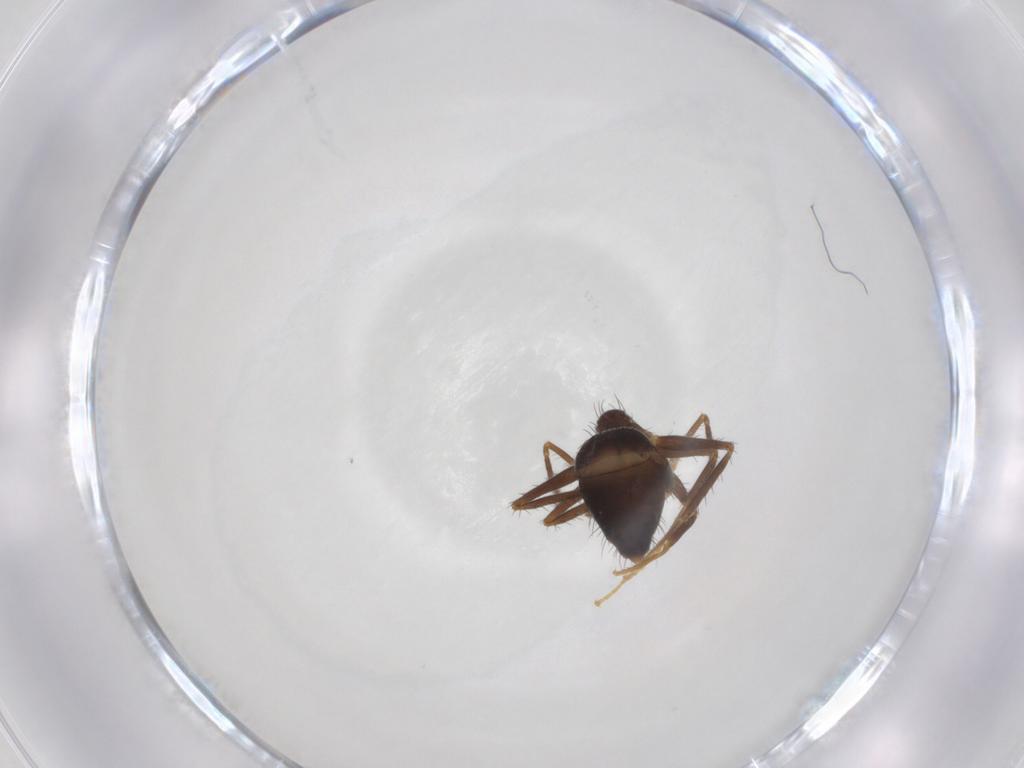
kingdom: Animalia
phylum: Arthropoda
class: Insecta
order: Hymenoptera
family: Formicidae
